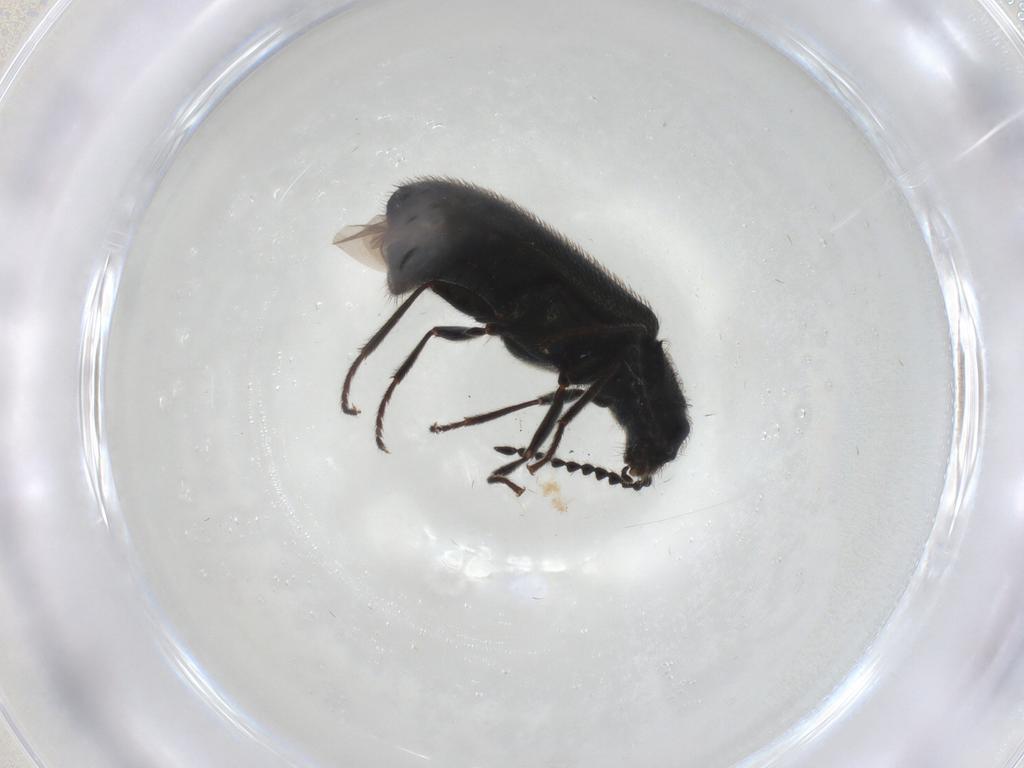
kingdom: Animalia
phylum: Arthropoda
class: Insecta
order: Coleoptera
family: Melyridae
